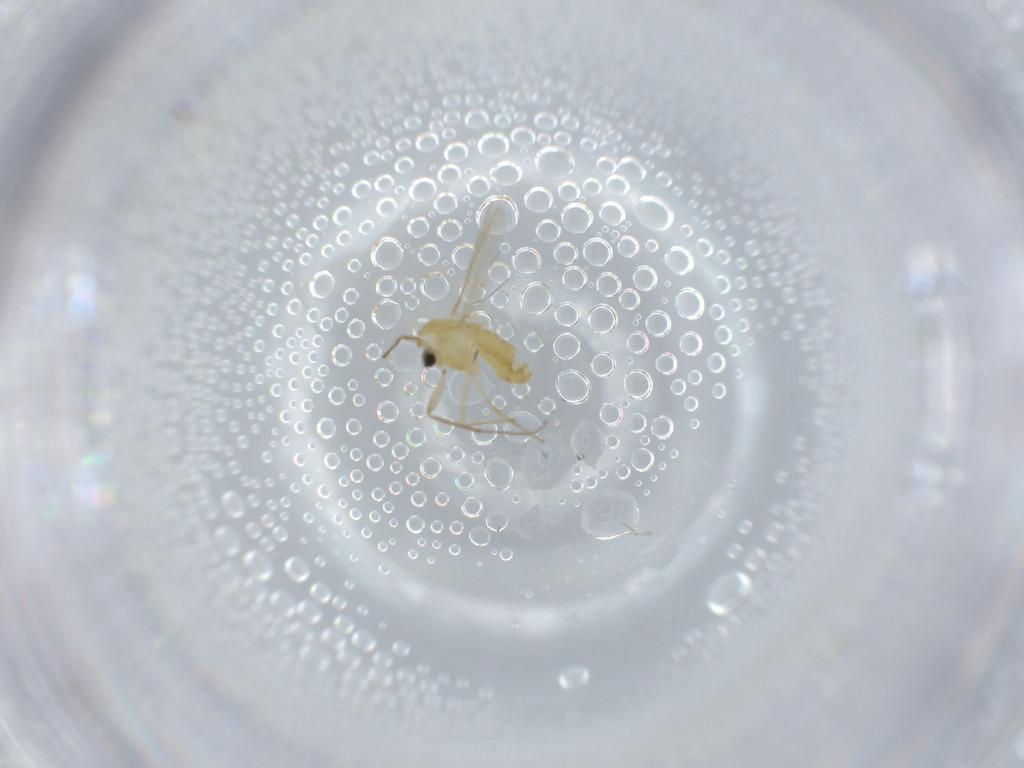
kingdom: Animalia
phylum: Arthropoda
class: Insecta
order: Diptera
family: Chironomidae
